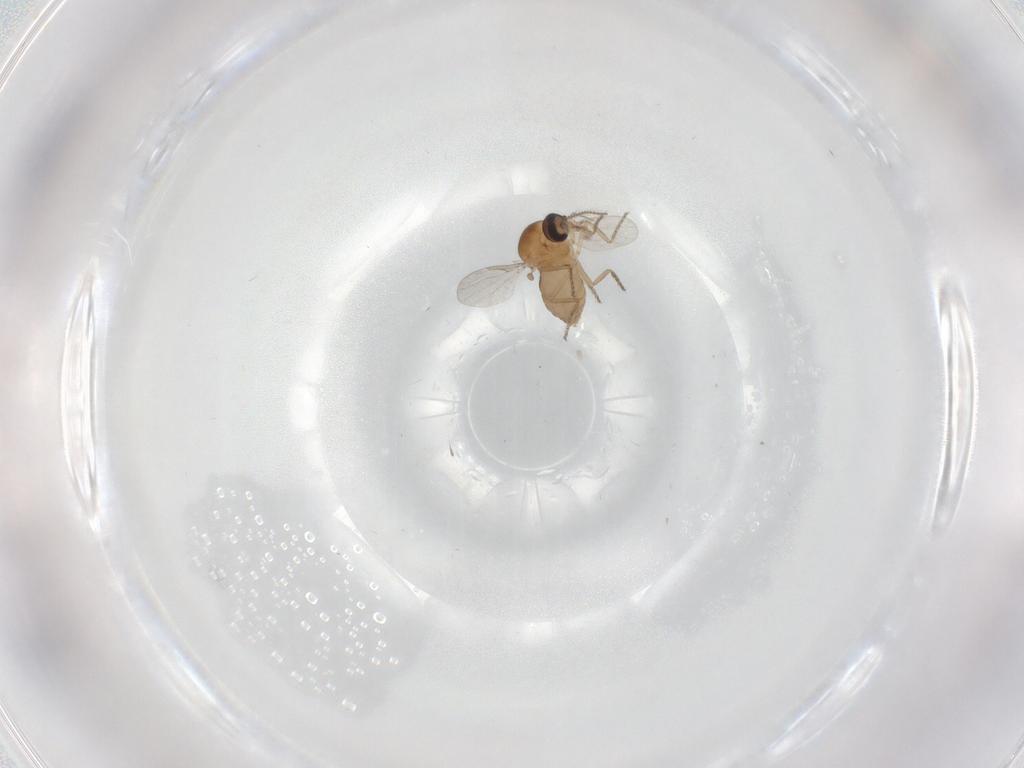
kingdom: Animalia
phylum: Arthropoda
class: Insecta
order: Diptera
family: Ceratopogonidae
